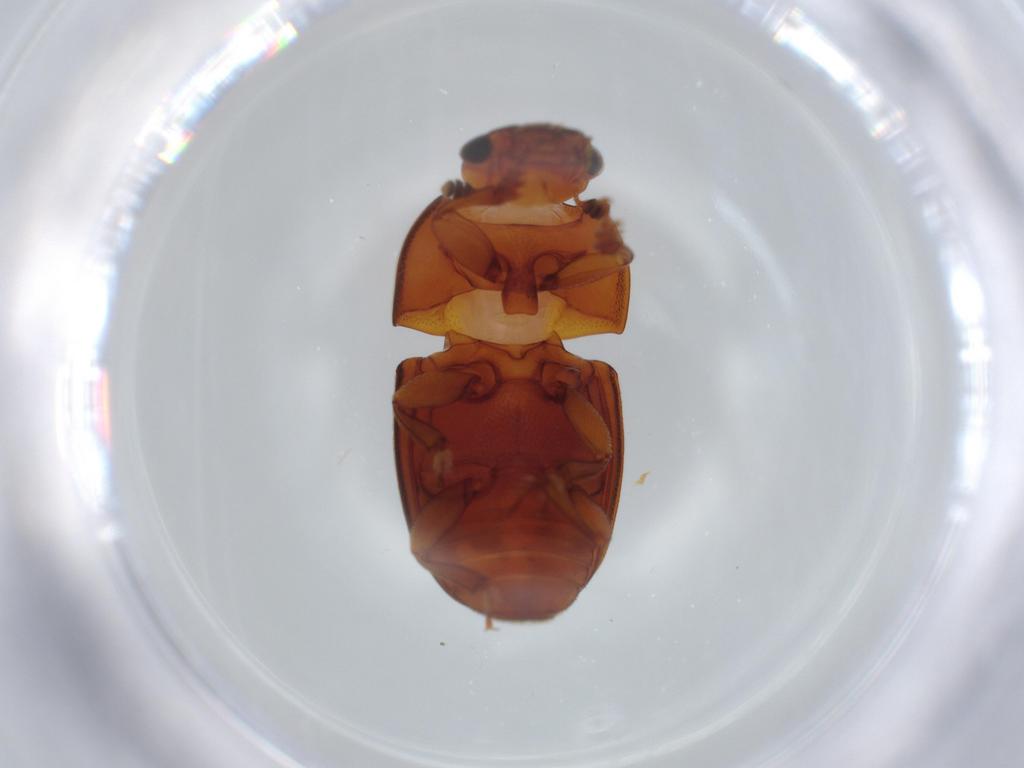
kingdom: Animalia
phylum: Arthropoda
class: Insecta
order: Coleoptera
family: Nitidulidae
